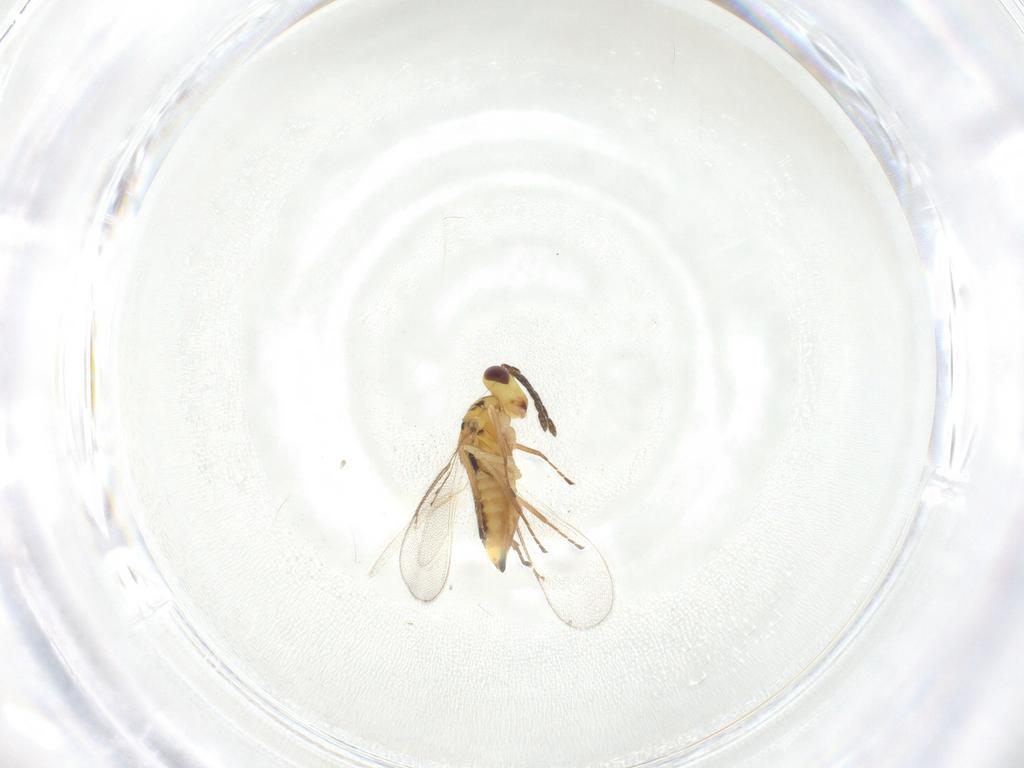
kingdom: Animalia
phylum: Arthropoda
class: Insecta
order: Hymenoptera
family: Eulophidae
